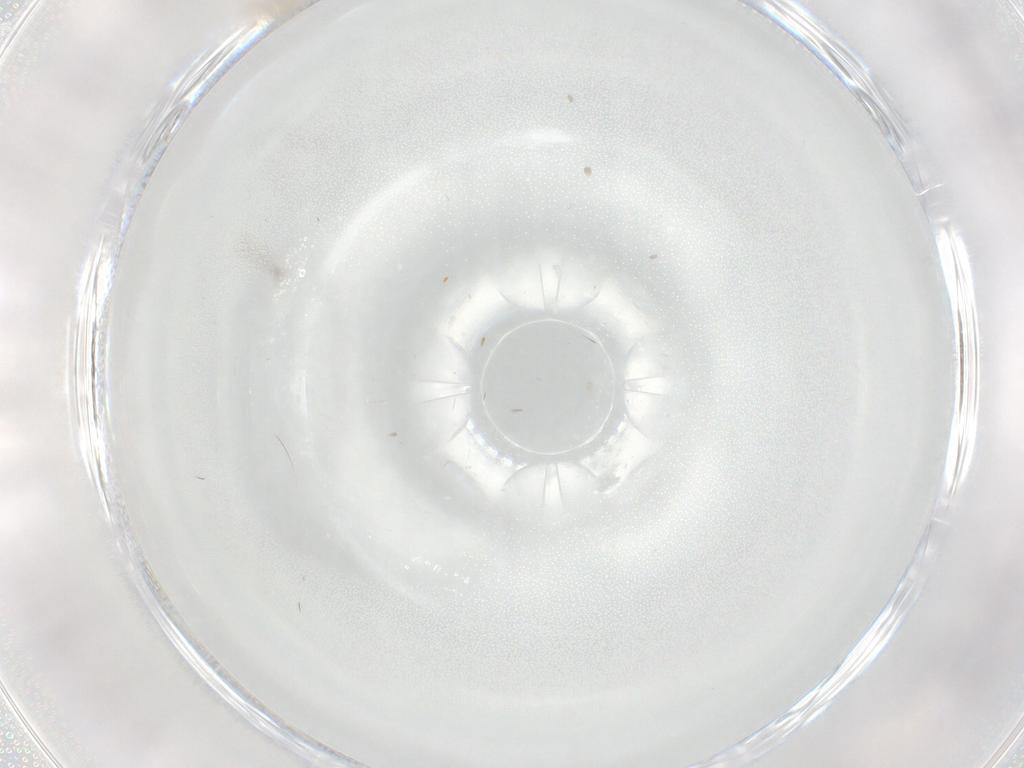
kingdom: Animalia
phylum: Arthropoda
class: Insecta
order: Diptera
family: Cecidomyiidae
